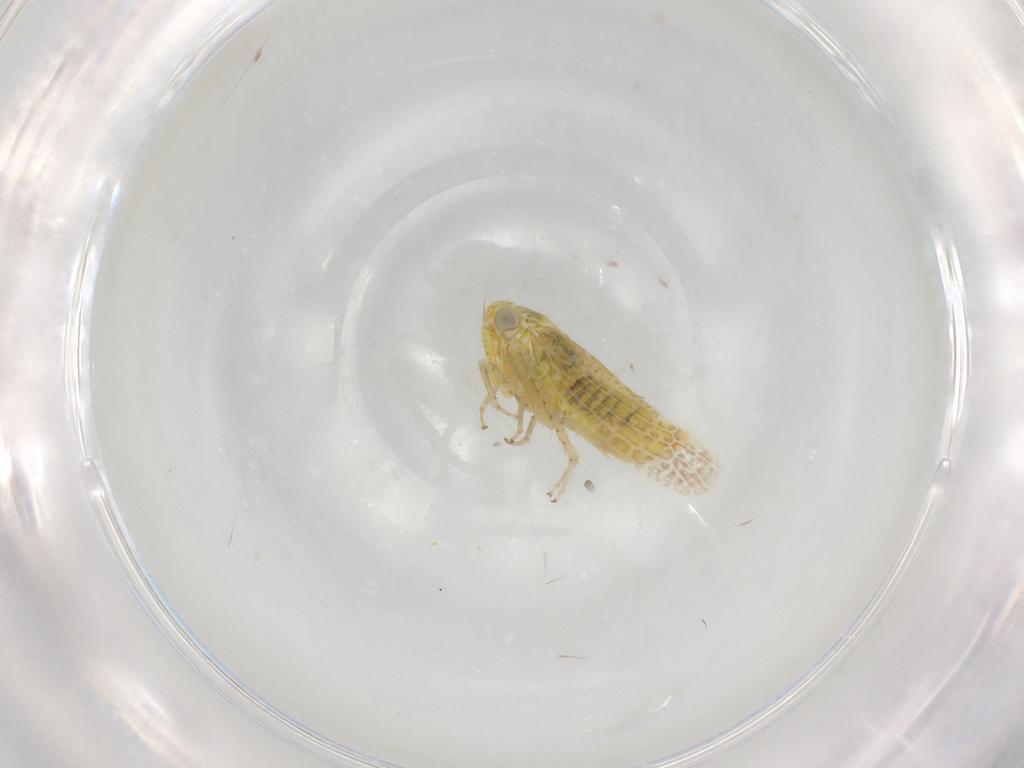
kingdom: Animalia
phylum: Arthropoda
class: Insecta
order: Hemiptera
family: Cicadellidae
